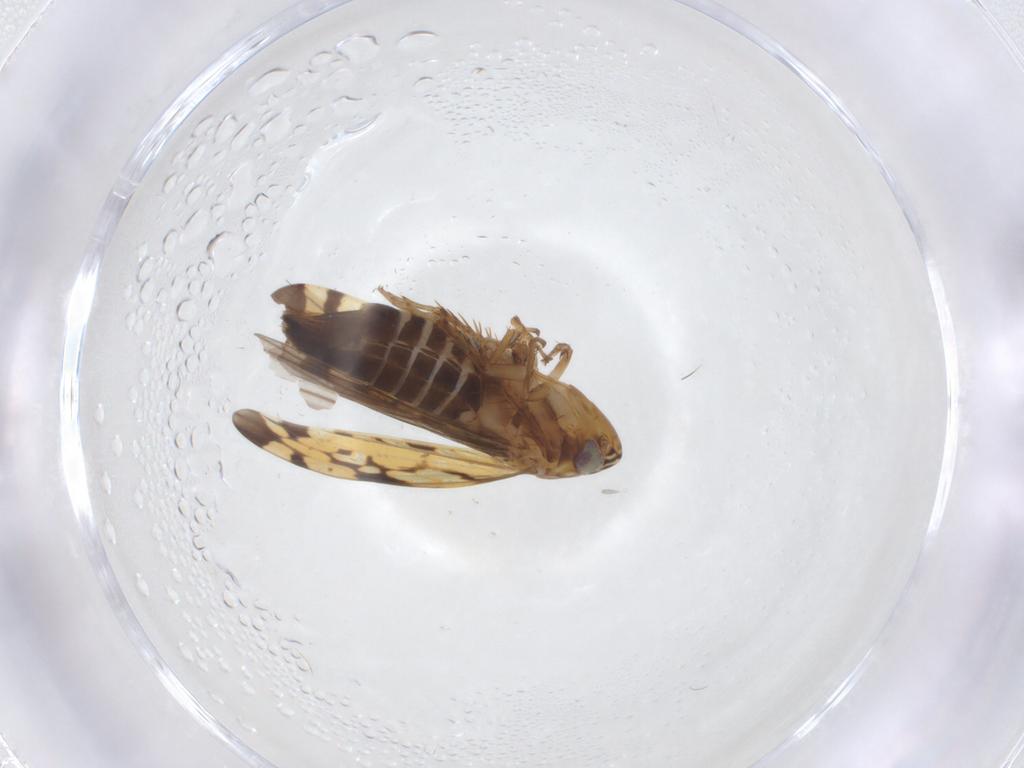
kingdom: Animalia
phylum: Arthropoda
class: Insecta
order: Hemiptera
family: Cicadellidae
